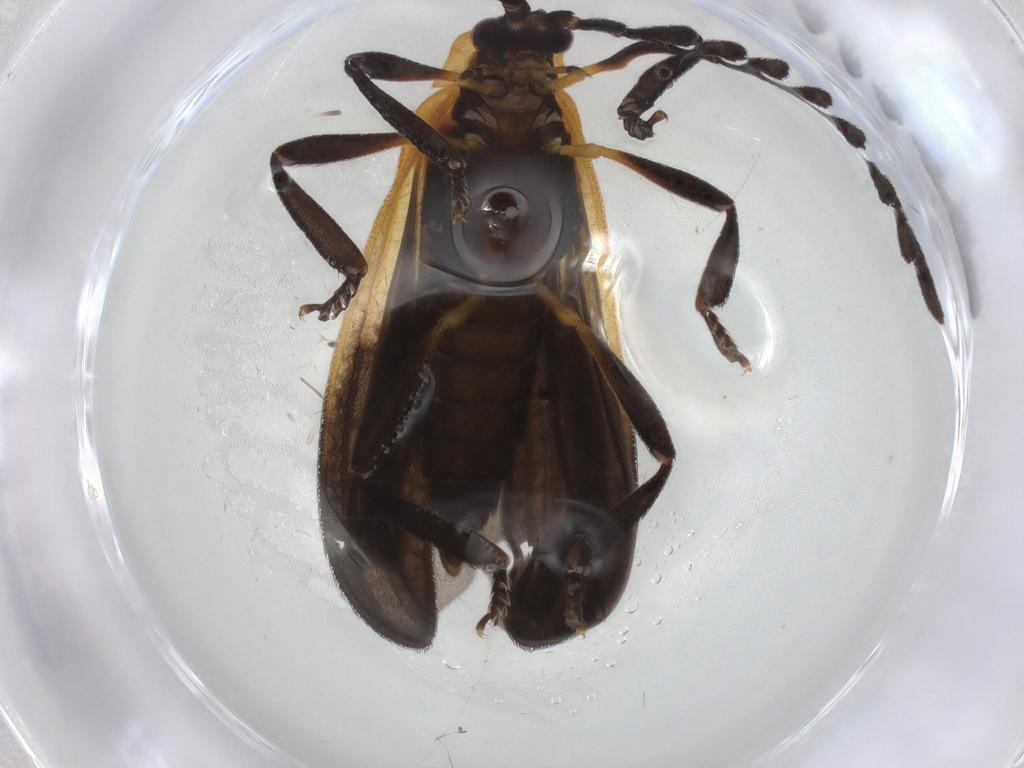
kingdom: Animalia
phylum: Arthropoda
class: Insecta
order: Coleoptera
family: Lycidae
